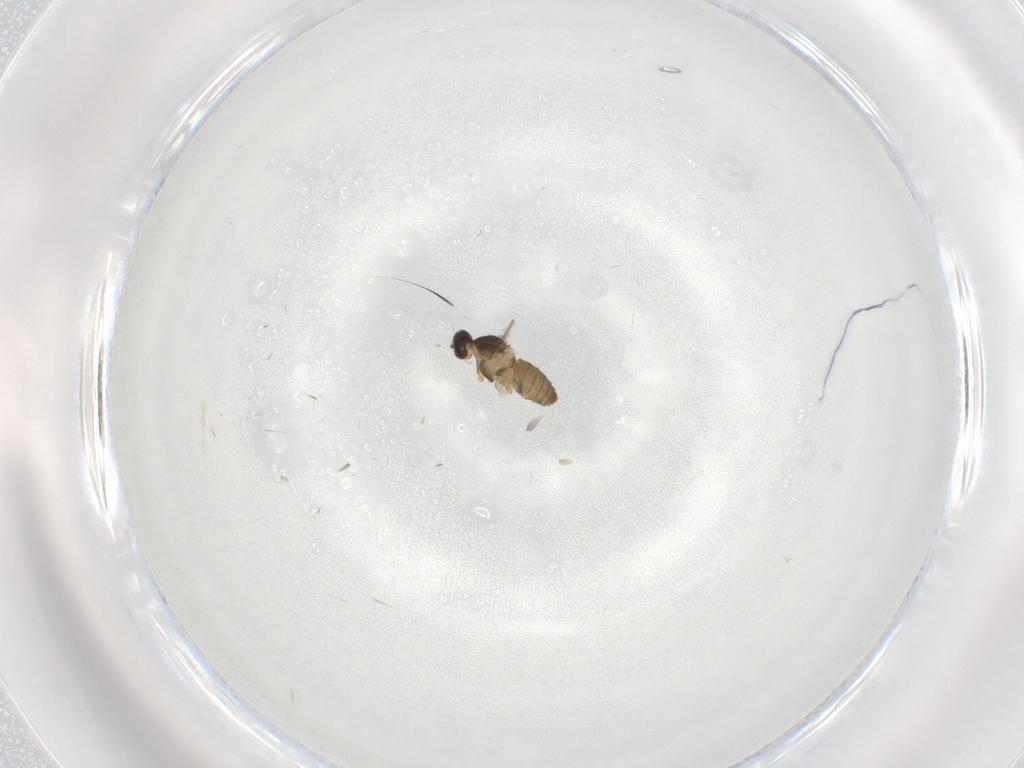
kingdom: Animalia
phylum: Arthropoda
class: Insecta
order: Diptera
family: Cecidomyiidae
